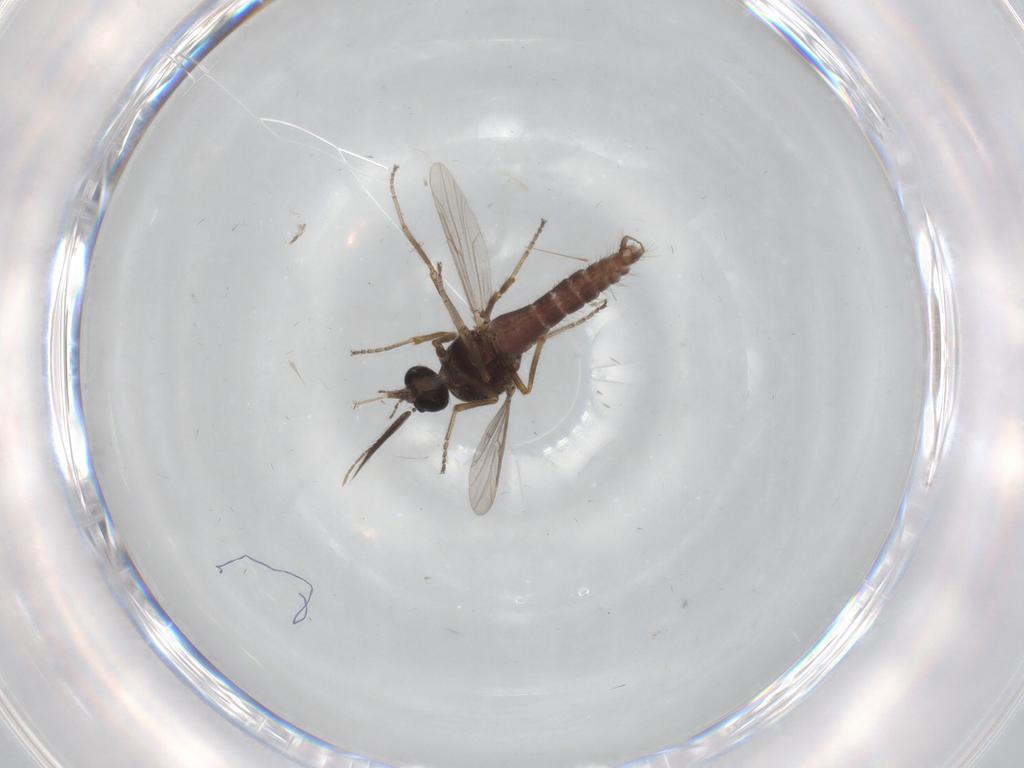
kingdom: Animalia
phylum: Arthropoda
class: Insecta
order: Diptera
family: Ceratopogonidae
